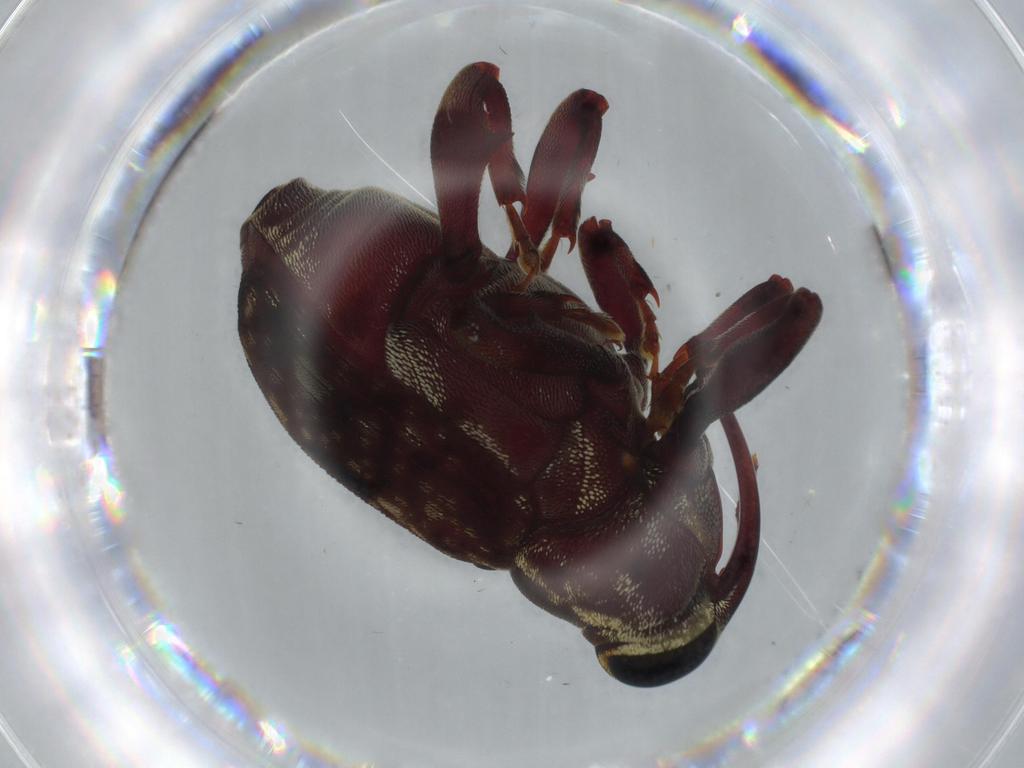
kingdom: Animalia
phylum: Arthropoda
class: Insecta
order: Coleoptera
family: Curculionidae
